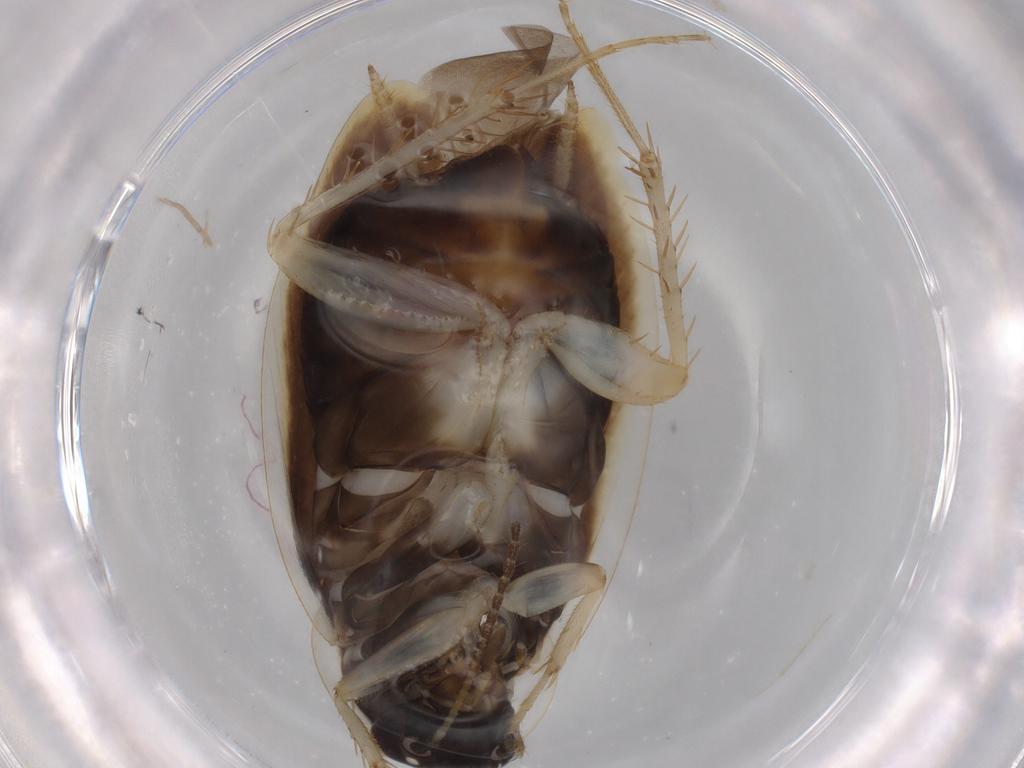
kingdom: Animalia
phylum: Arthropoda
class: Insecta
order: Blattodea
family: Ectobiidae
